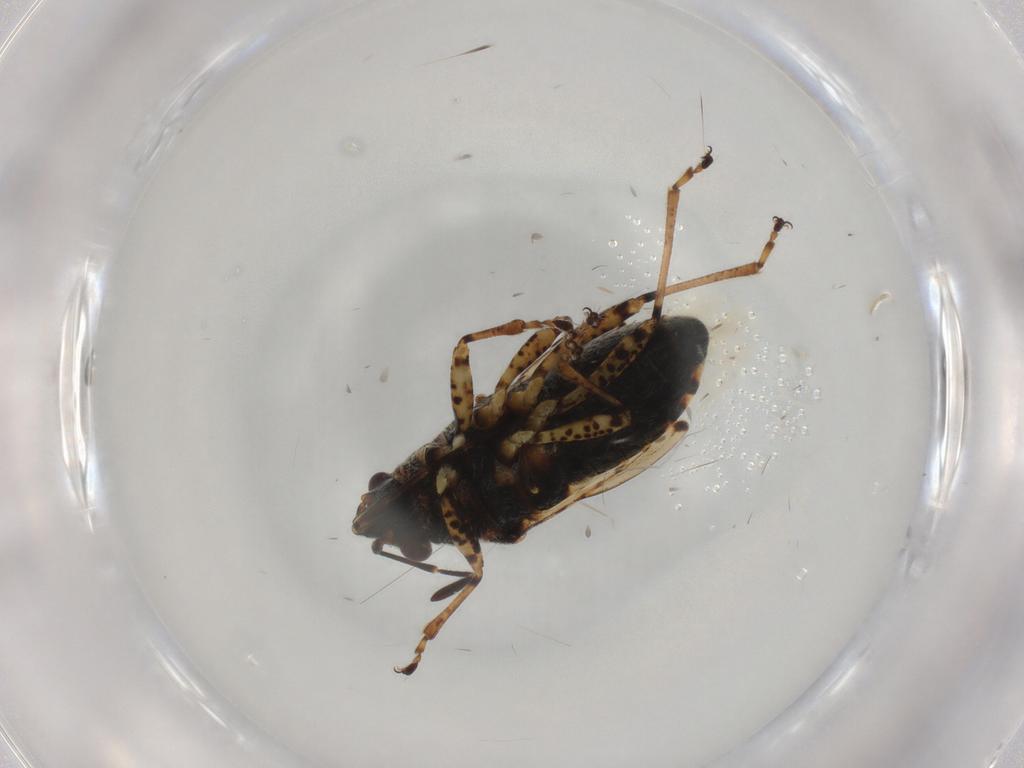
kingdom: Animalia
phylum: Arthropoda
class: Insecta
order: Hemiptera
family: Lygaeidae
